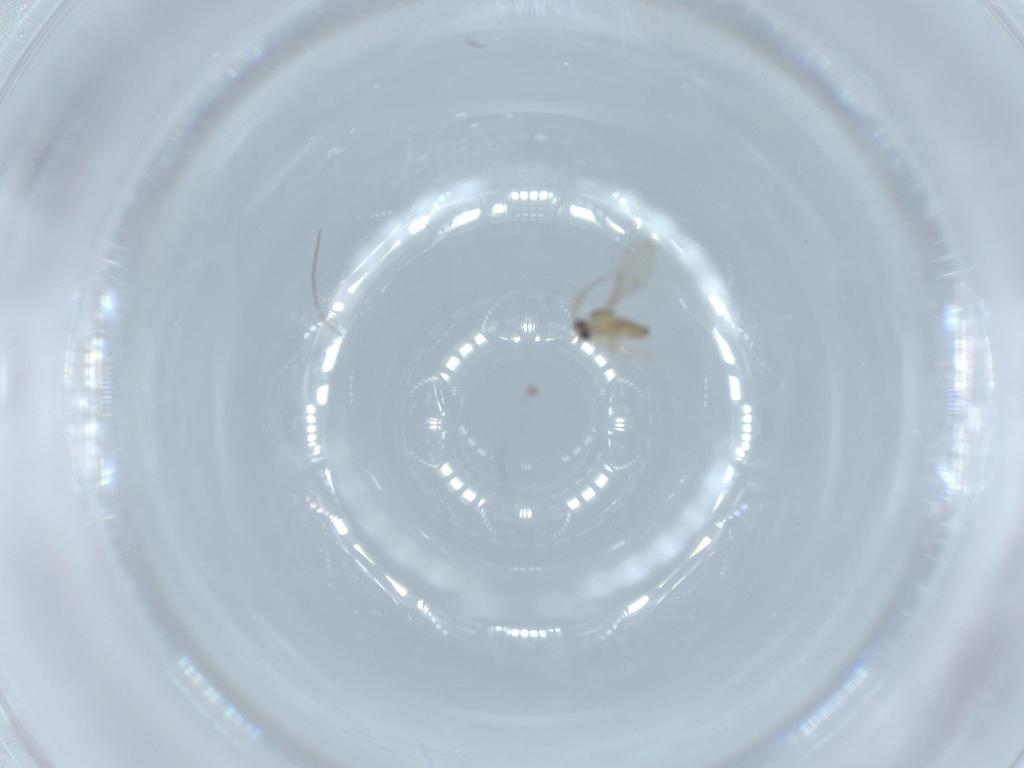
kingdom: Animalia
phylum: Arthropoda
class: Insecta
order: Diptera
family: Cecidomyiidae
